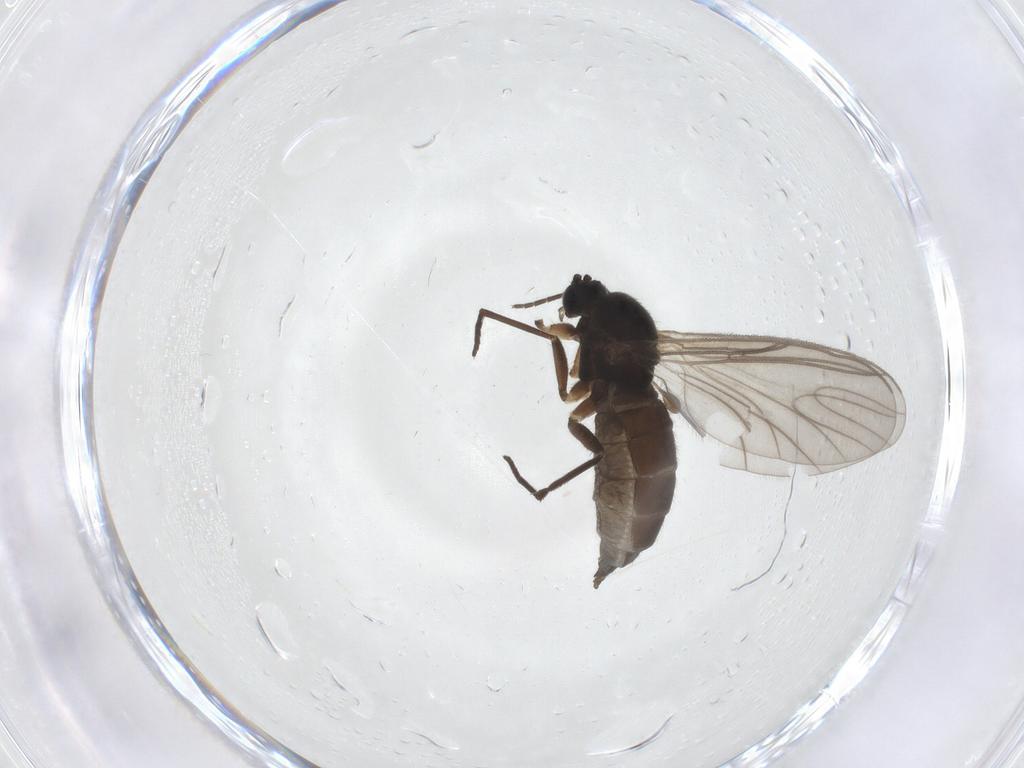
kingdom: Animalia
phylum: Arthropoda
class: Insecta
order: Diptera
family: Sciaridae
